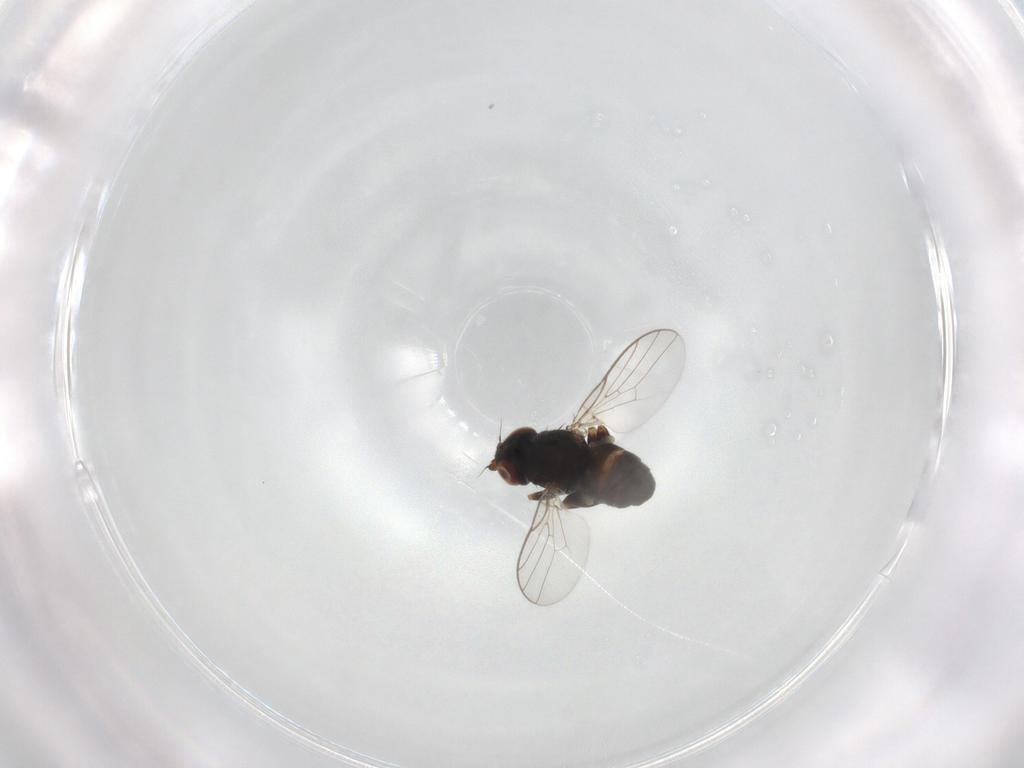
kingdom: Animalia
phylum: Arthropoda
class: Insecta
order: Diptera
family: Chloropidae
